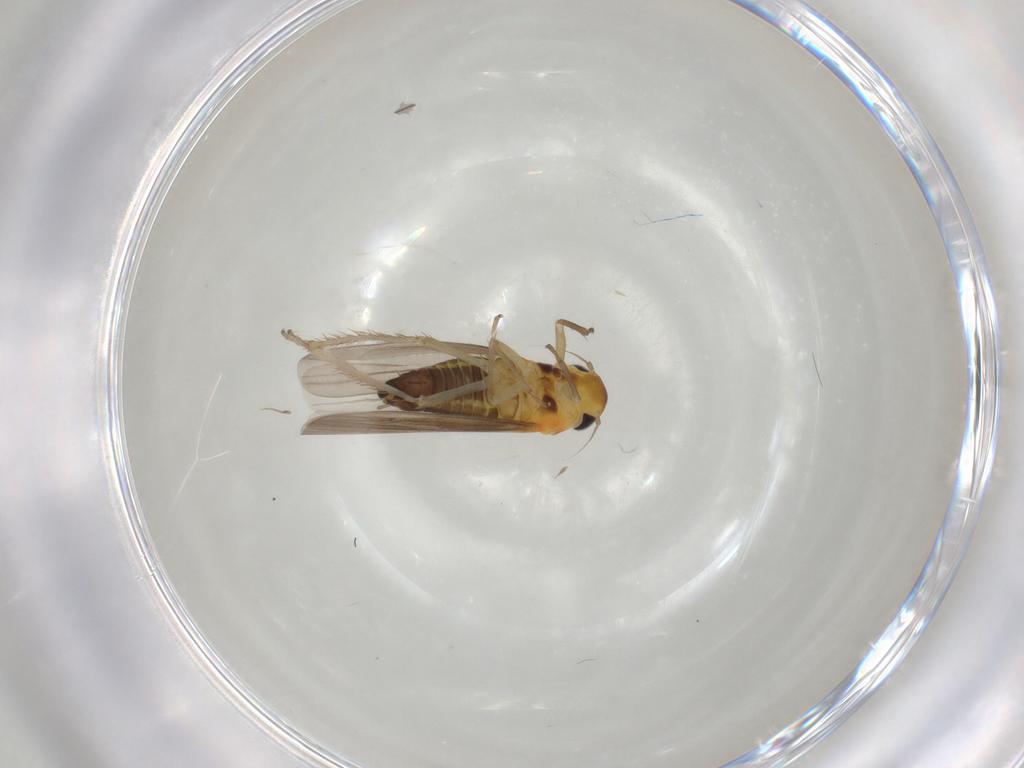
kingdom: Animalia
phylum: Arthropoda
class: Insecta
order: Hemiptera
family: Cicadellidae
